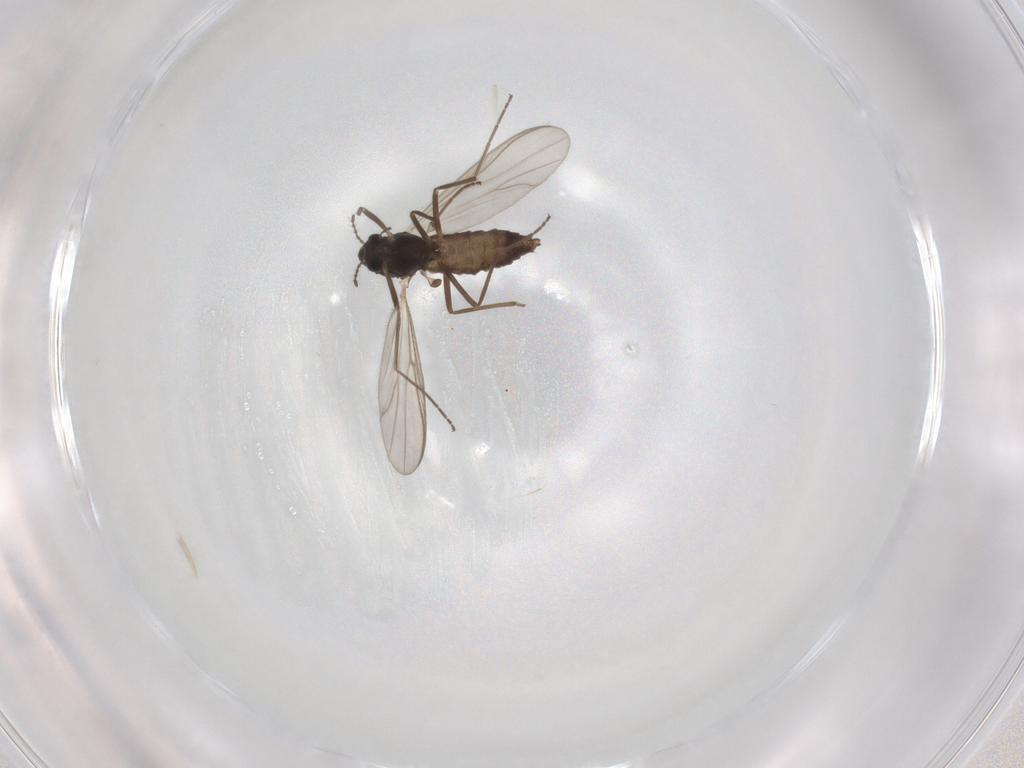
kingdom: Animalia
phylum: Arthropoda
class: Insecta
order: Diptera
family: Chironomidae
